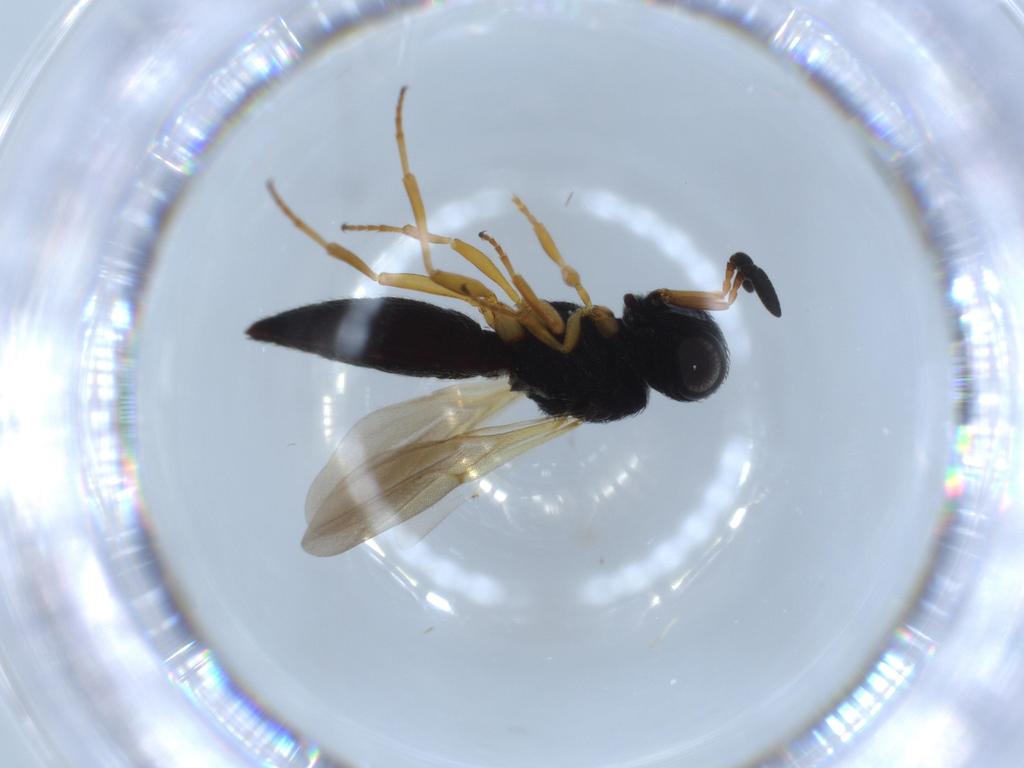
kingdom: Animalia
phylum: Arthropoda
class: Insecta
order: Hymenoptera
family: Scelionidae
